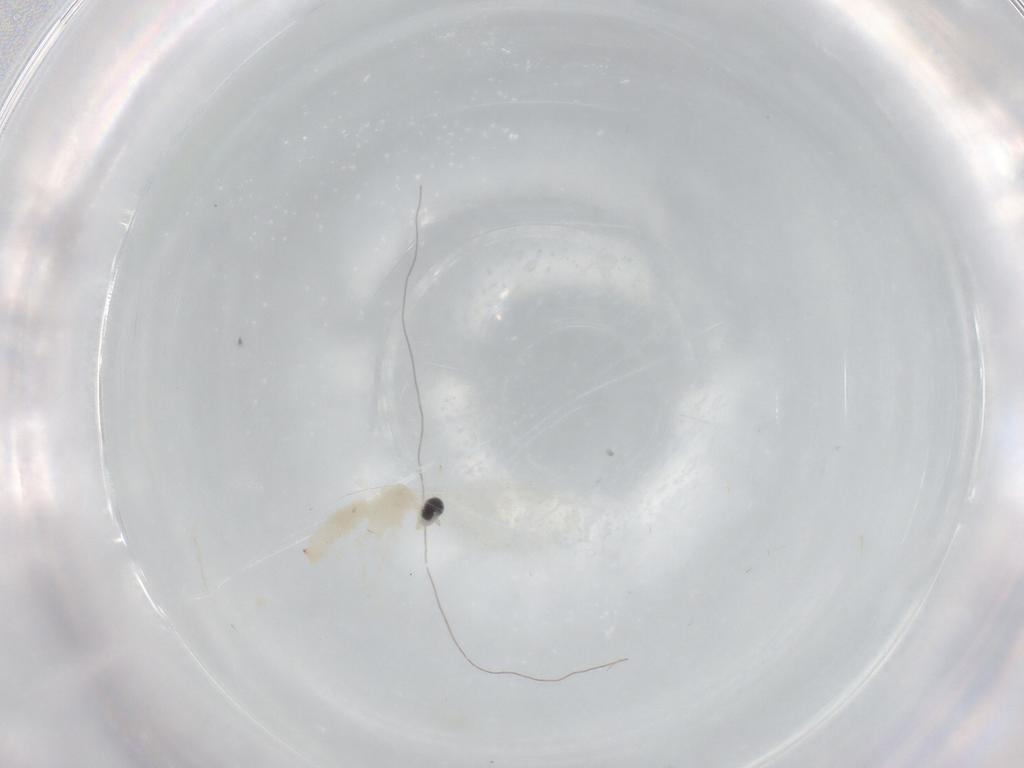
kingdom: Animalia
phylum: Arthropoda
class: Insecta
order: Diptera
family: Cecidomyiidae
